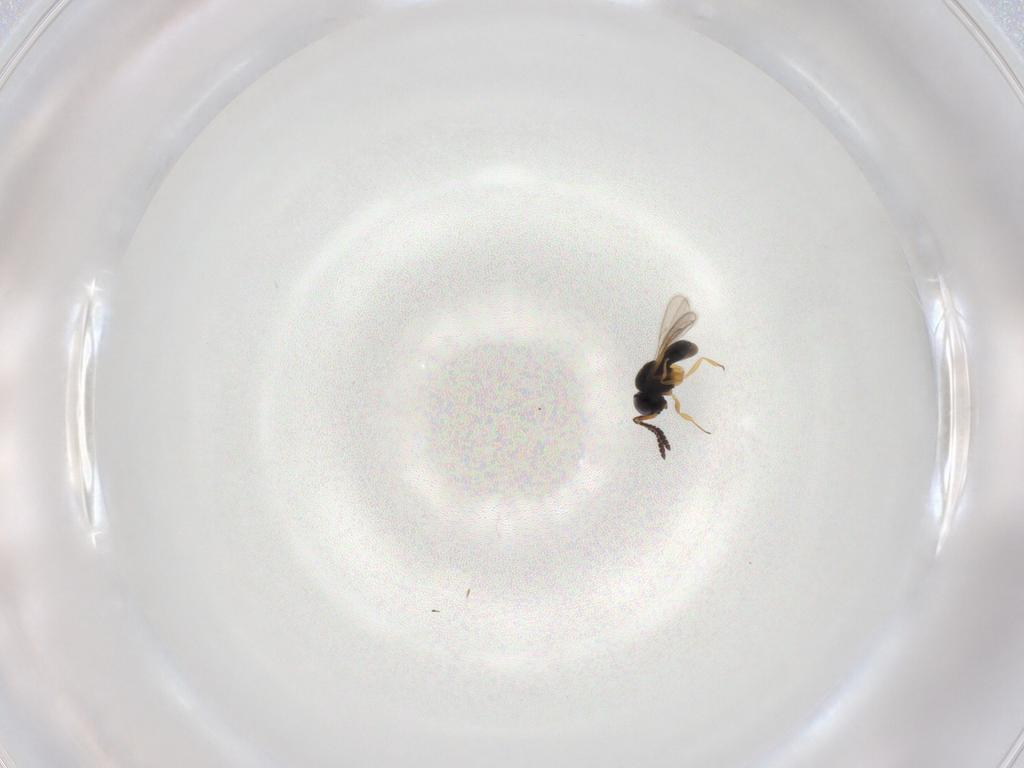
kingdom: Animalia
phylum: Arthropoda
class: Insecta
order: Hymenoptera
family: Scelionidae
